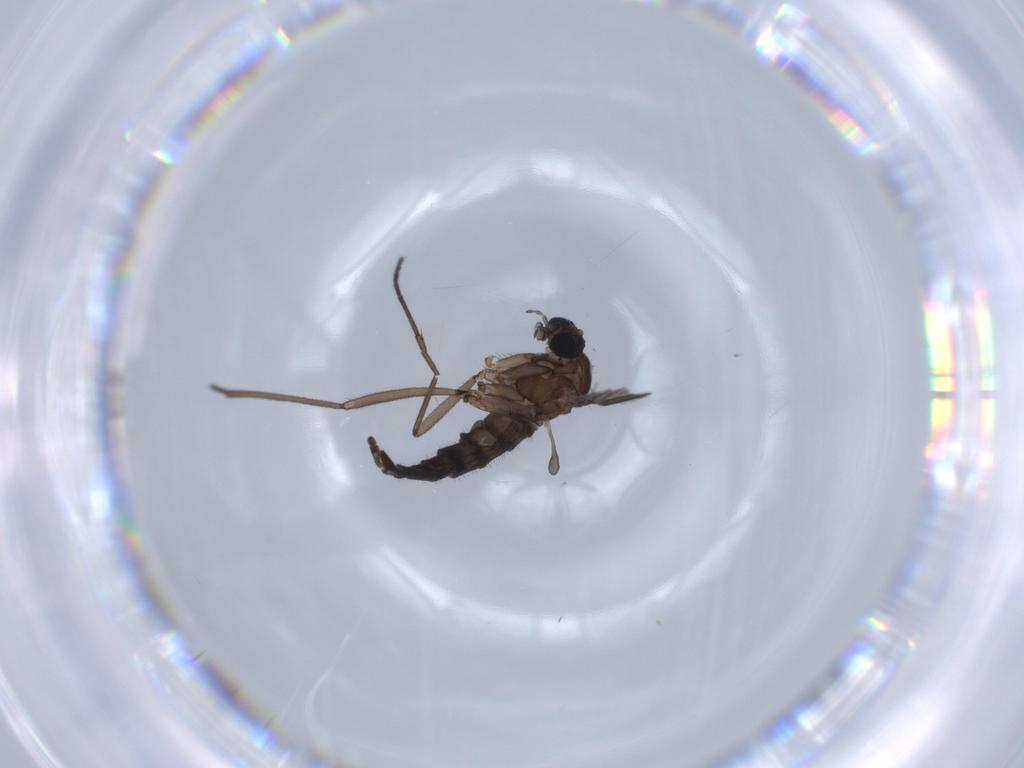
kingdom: Animalia
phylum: Arthropoda
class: Insecta
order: Diptera
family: Sciaridae
